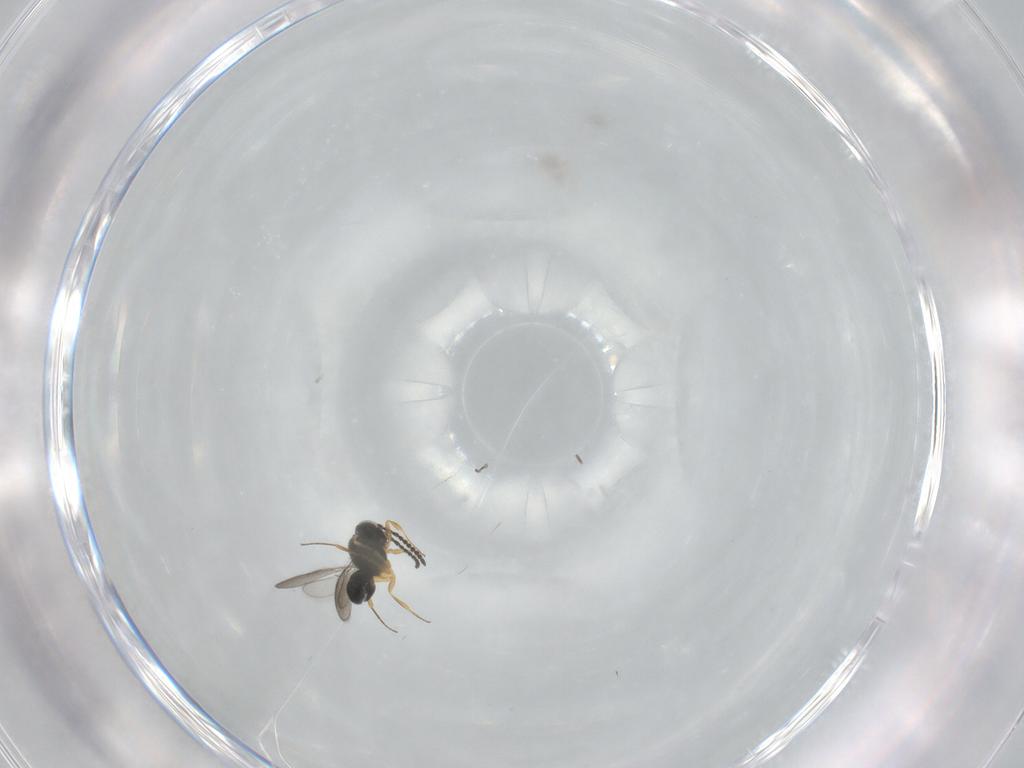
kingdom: Animalia
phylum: Arthropoda
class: Insecta
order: Hymenoptera
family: Scelionidae
